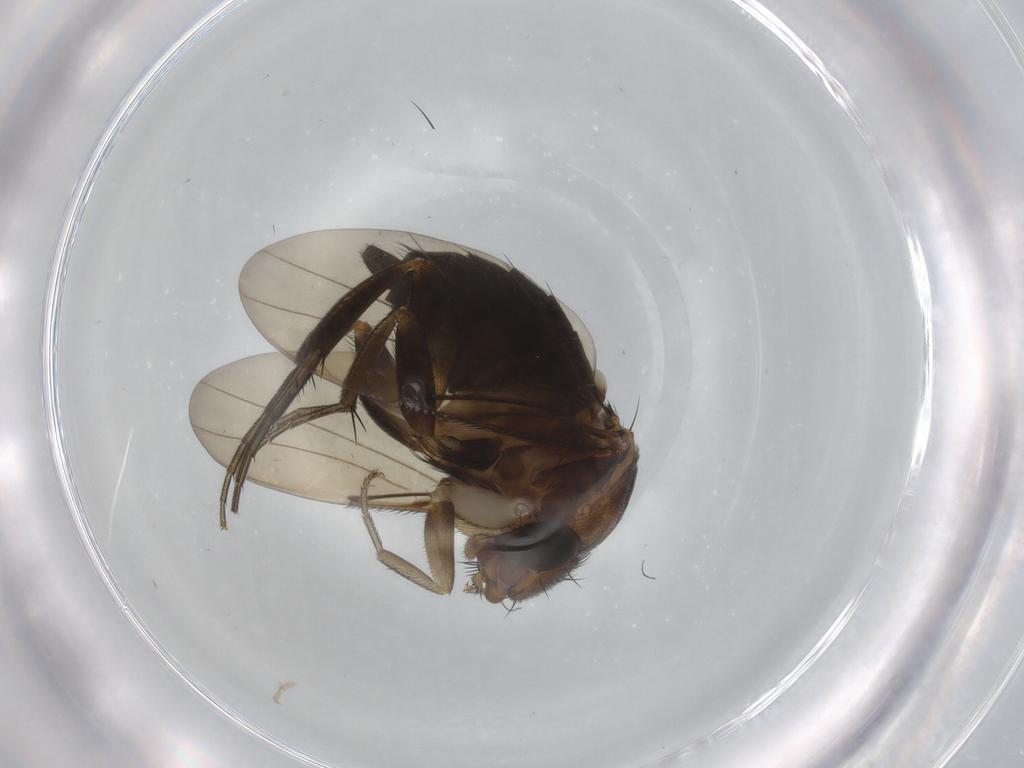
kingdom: Animalia
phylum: Arthropoda
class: Insecta
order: Diptera
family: Phoridae
